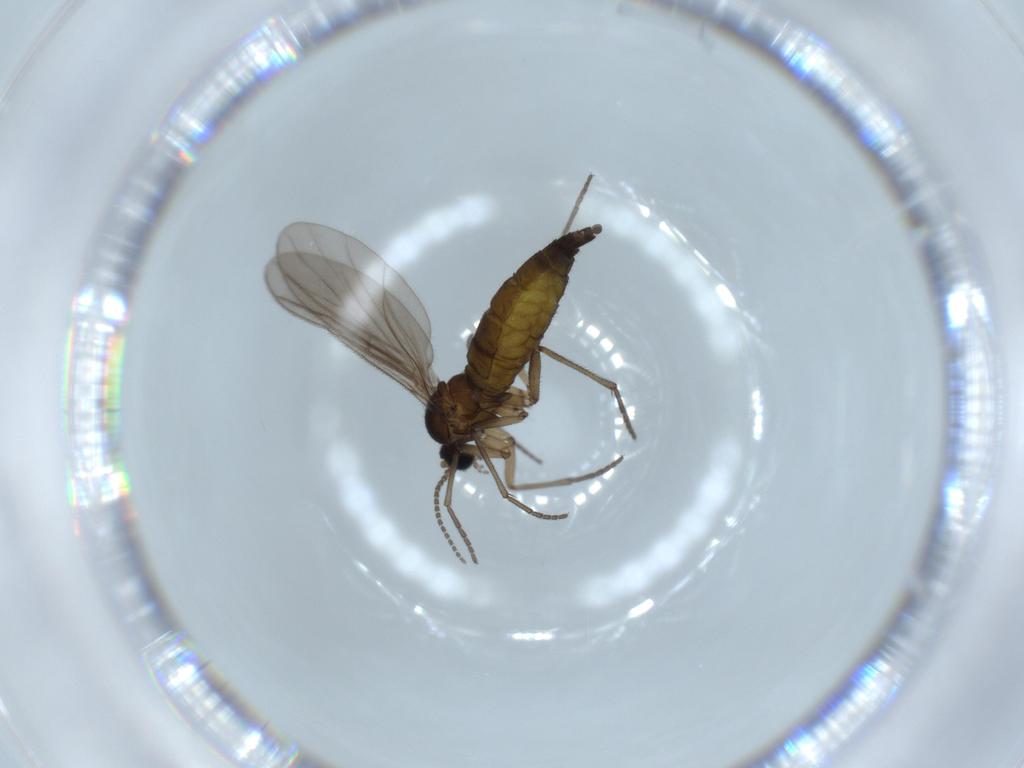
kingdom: Animalia
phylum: Arthropoda
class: Insecta
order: Diptera
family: Sciaridae
